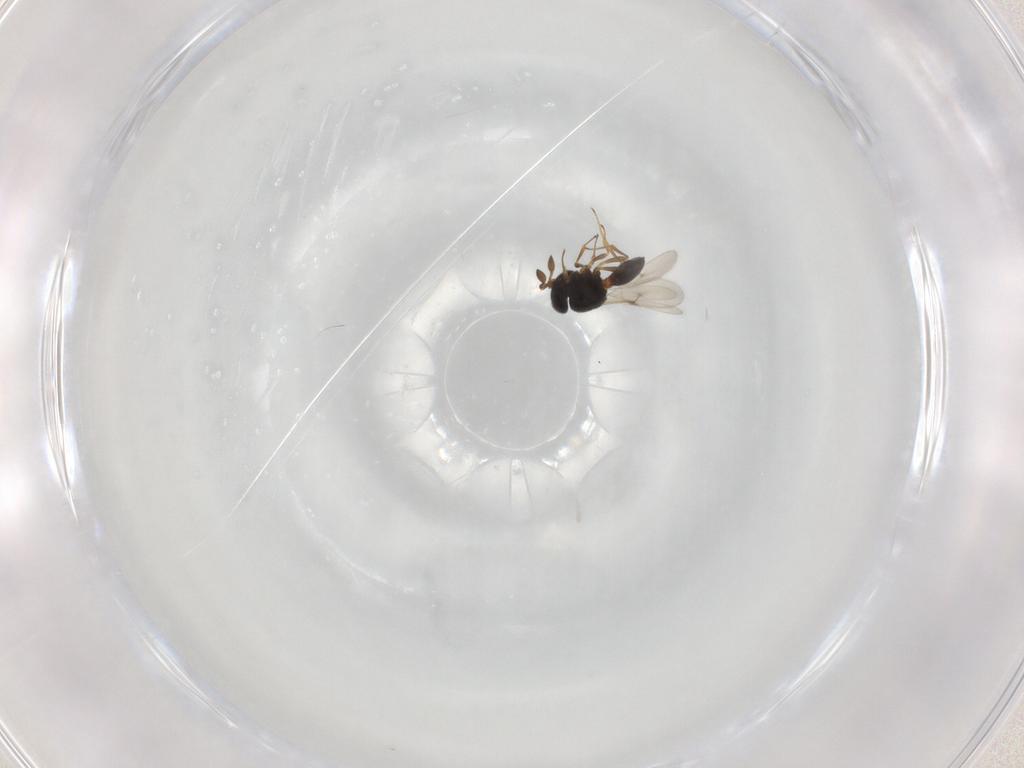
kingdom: Animalia
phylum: Arthropoda
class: Insecta
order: Hymenoptera
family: Scelionidae
